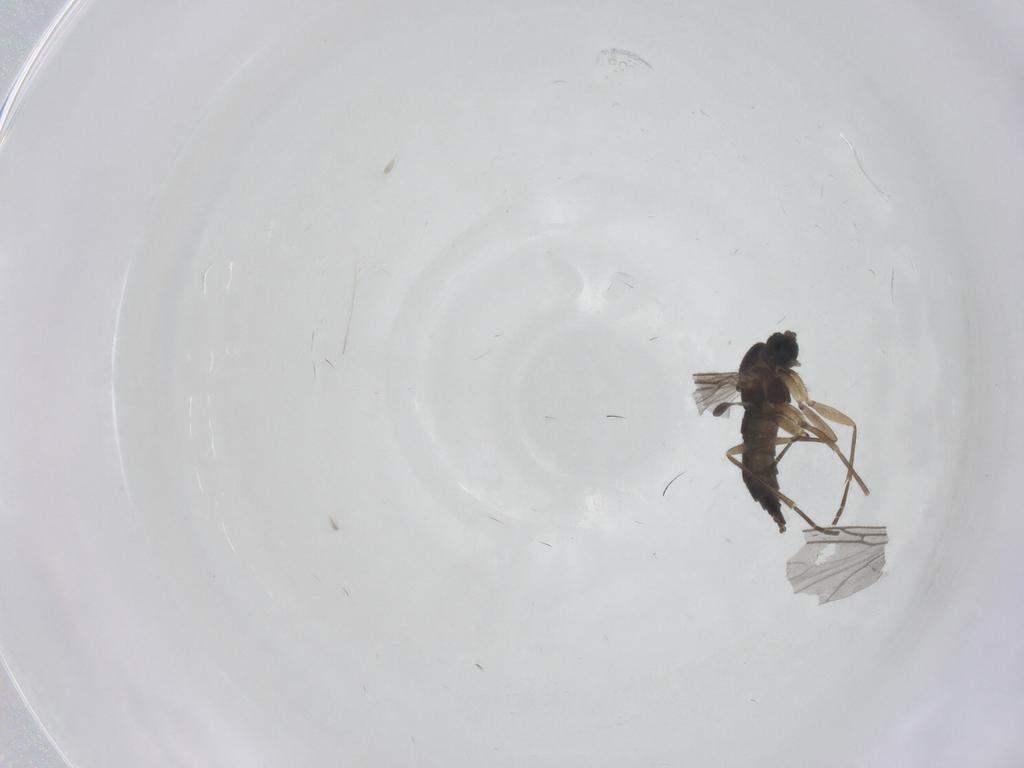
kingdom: Animalia
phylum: Arthropoda
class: Insecta
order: Diptera
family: Sciaridae
